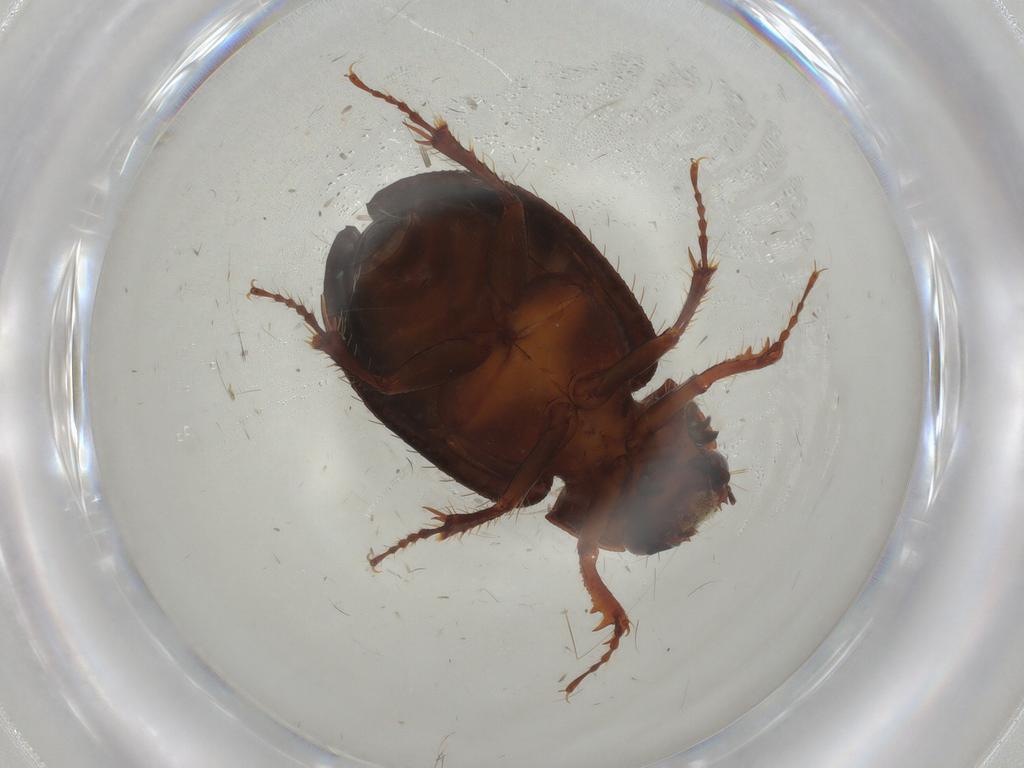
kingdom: Animalia
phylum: Arthropoda
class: Insecta
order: Coleoptera
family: Hybosoridae
